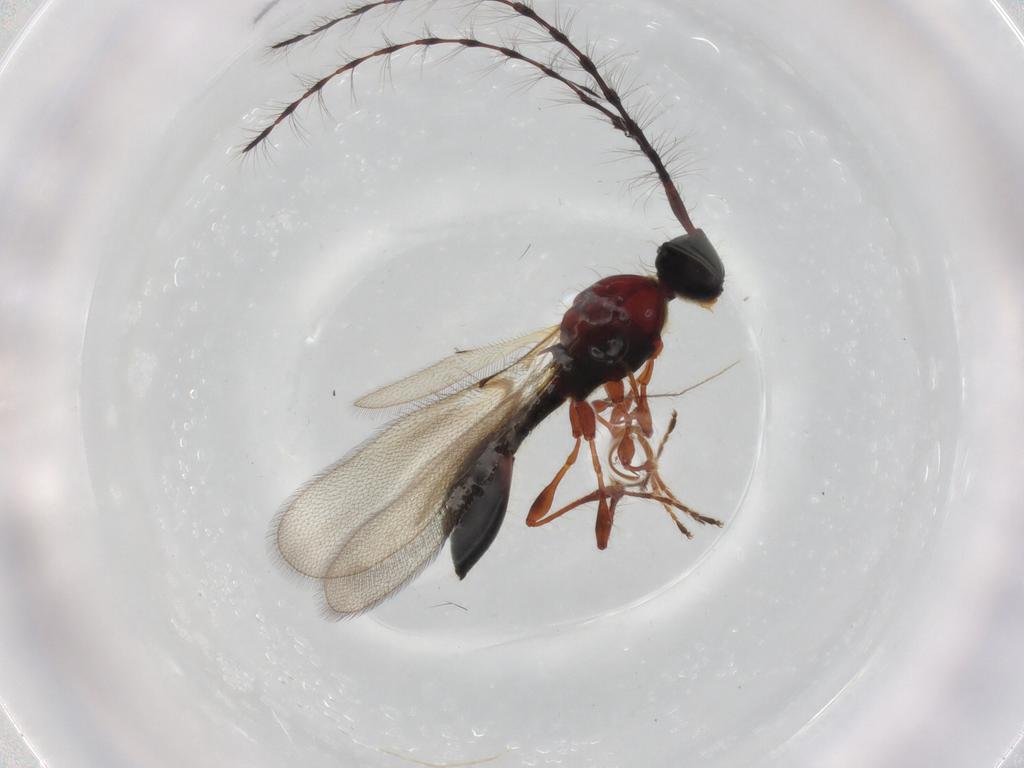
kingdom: Animalia
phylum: Arthropoda
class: Insecta
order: Hymenoptera
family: Diapriidae
